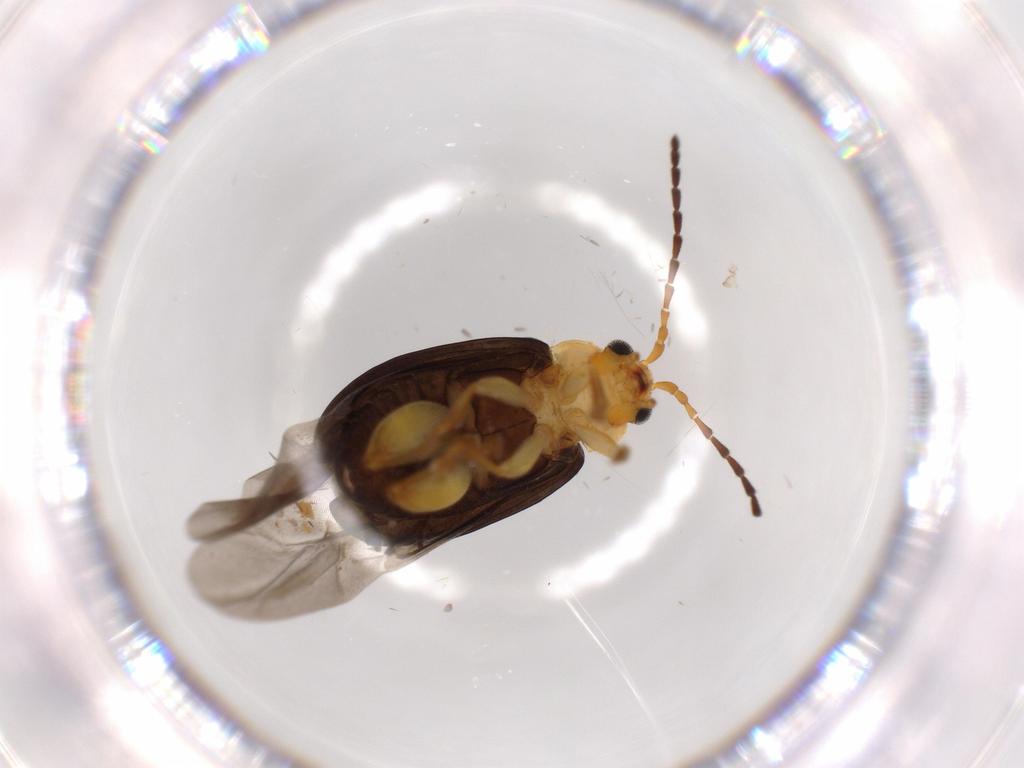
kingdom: Animalia
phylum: Arthropoda
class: Insecta
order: Coleoptera
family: Chrysomelidae
